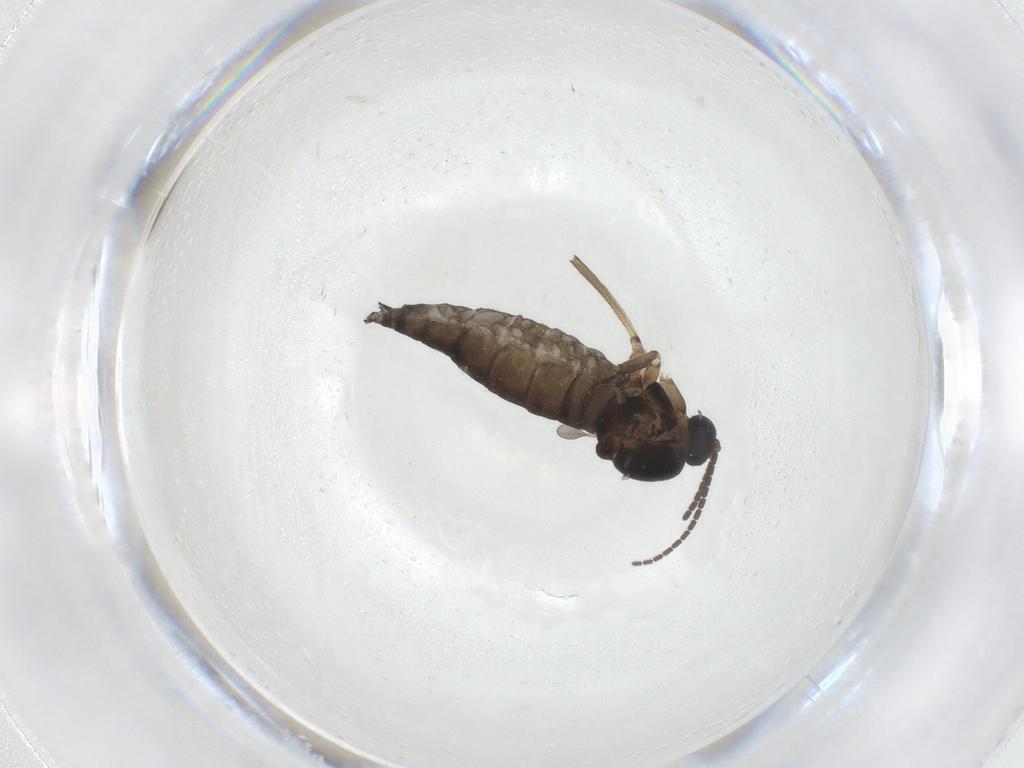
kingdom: Animalia
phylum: Arthropoda
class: Insecta
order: Diptera
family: Sciaridae
